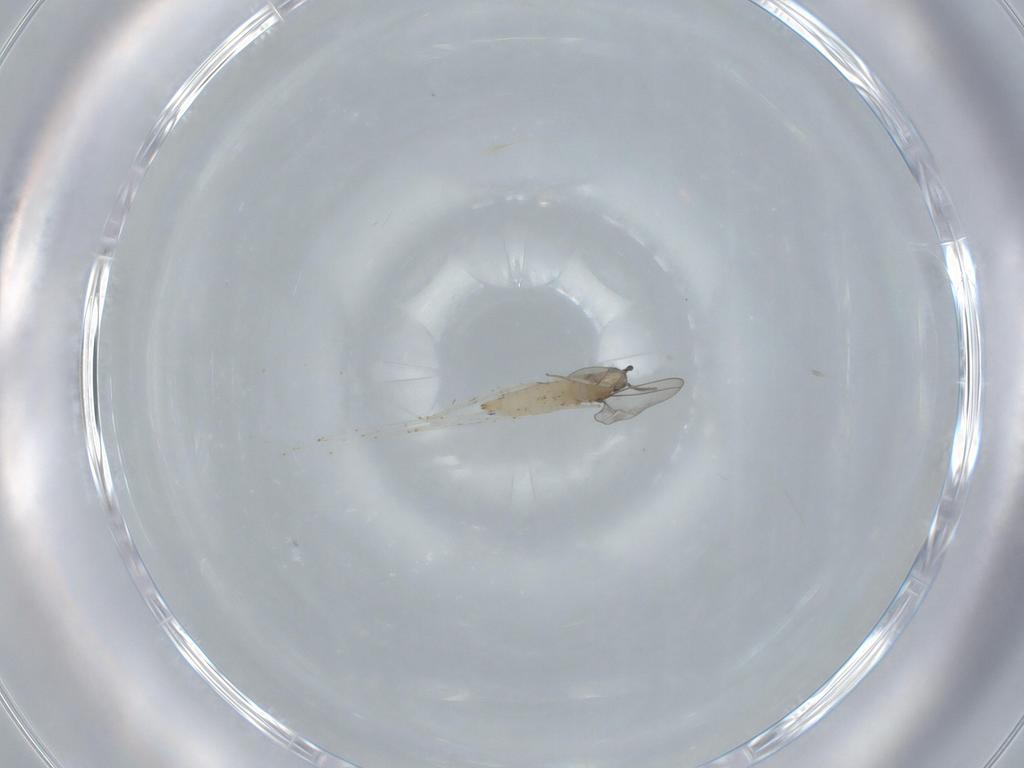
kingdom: Animalia
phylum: Arthropoda
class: Insecta
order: Diptera
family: Cecidomyiidae
